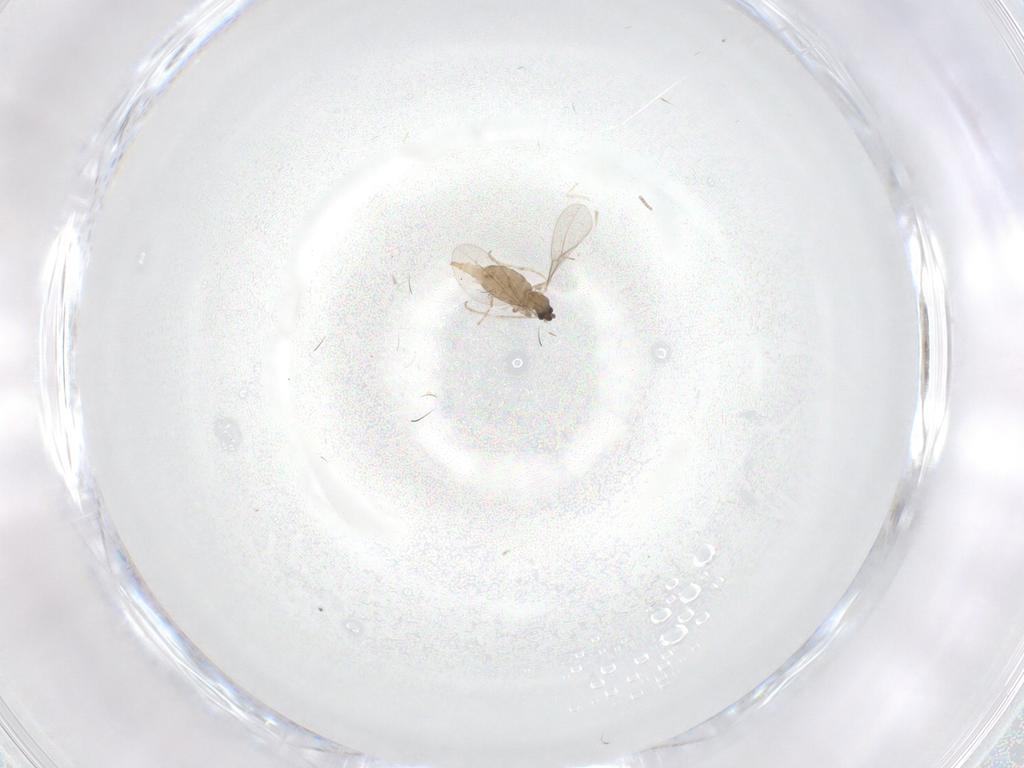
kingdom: Animalia
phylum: Arthropoda
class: Insecta
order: Diptera
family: Cecidomyiidae
